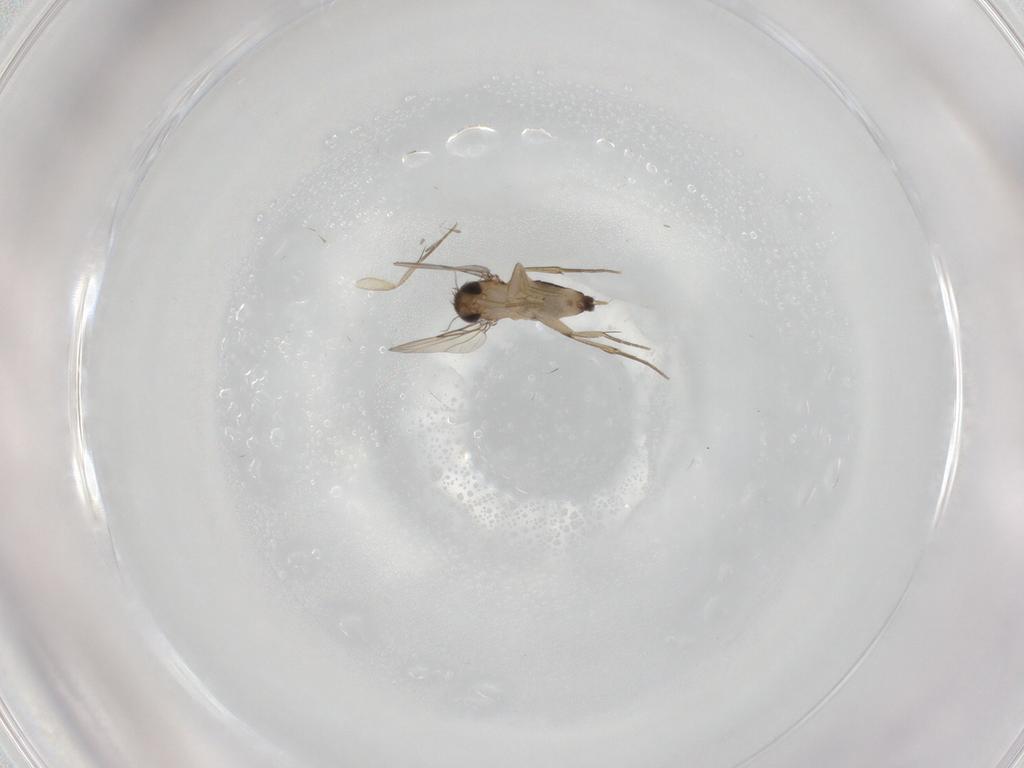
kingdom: Animalia
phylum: Arthropoda
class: Insecta
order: Diptera
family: Phoridae
